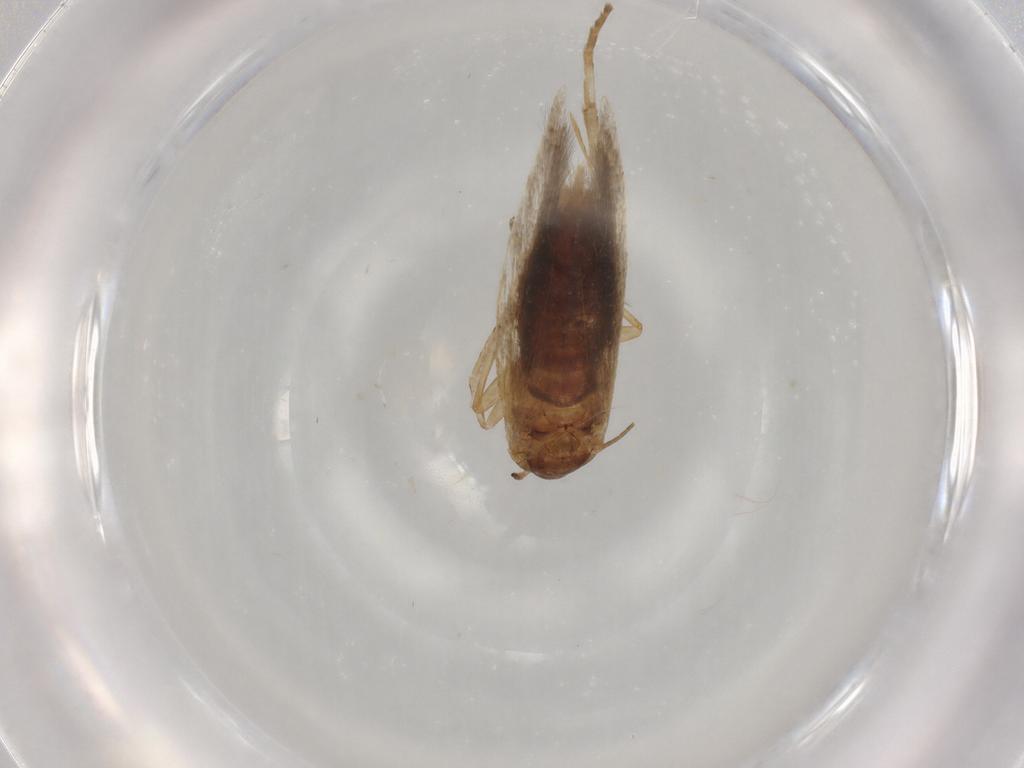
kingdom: Animalia
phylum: Arthropoda
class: Insecta
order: Lepidoptera
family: Gelechiidae
